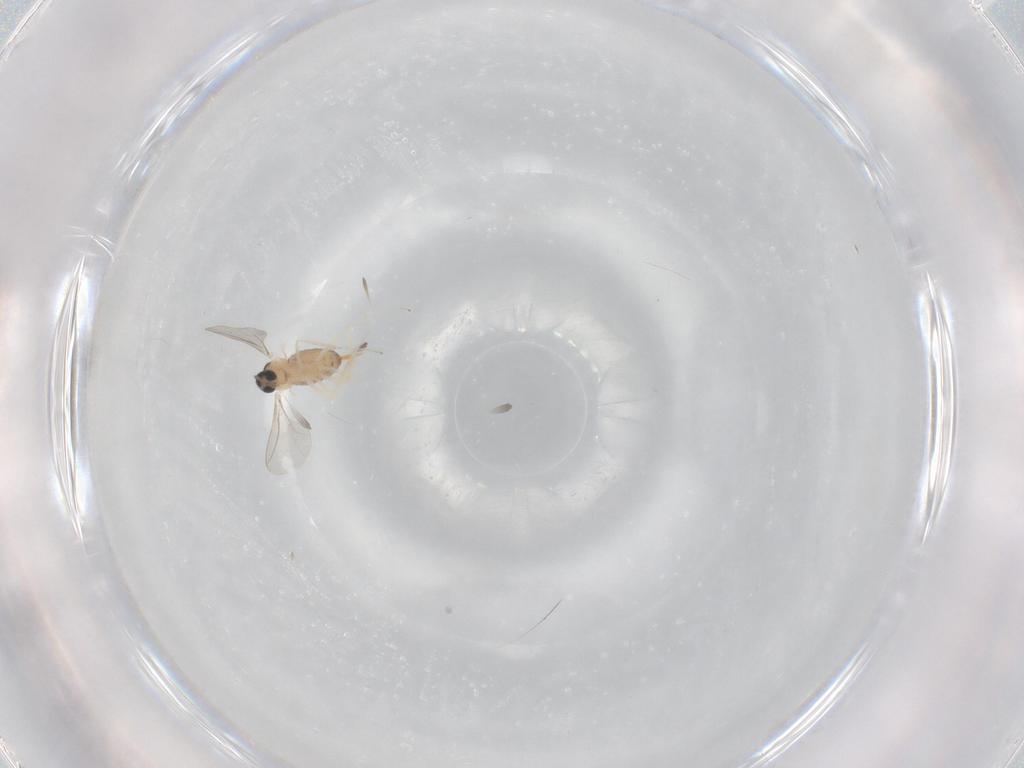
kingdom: Animalia
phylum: Arthropoda
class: Insecta
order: Diptera
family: Cecidomyiidae
